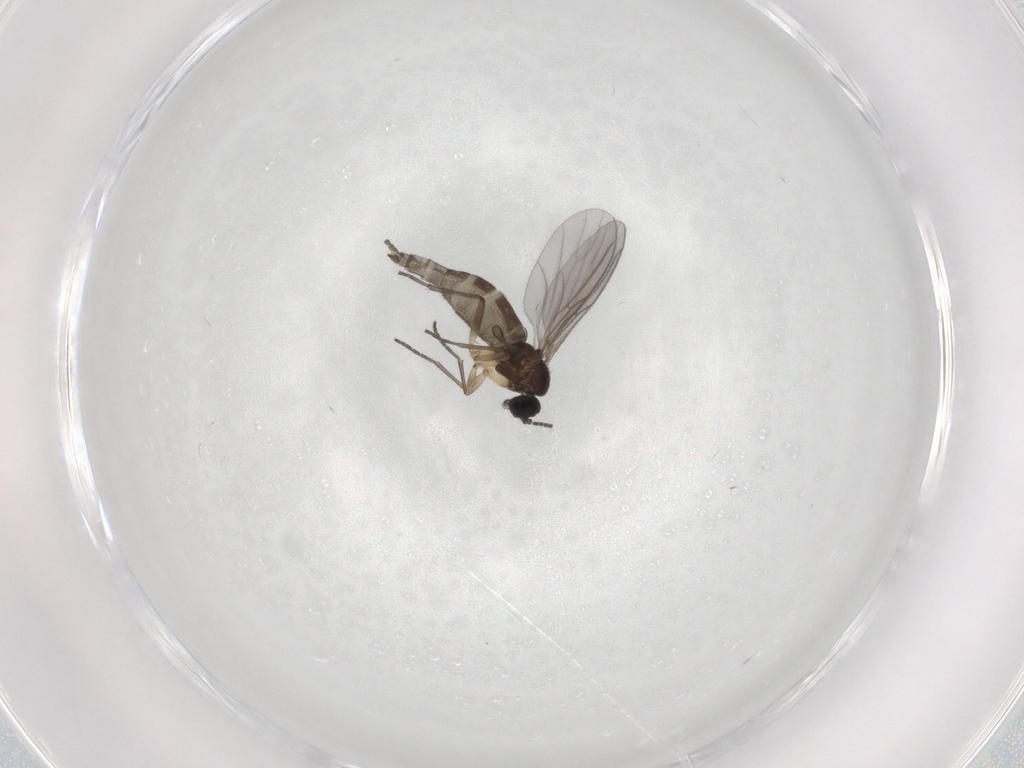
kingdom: Animalia
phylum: Arthropoda
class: Insecta
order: Diptera
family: Sciaridae
